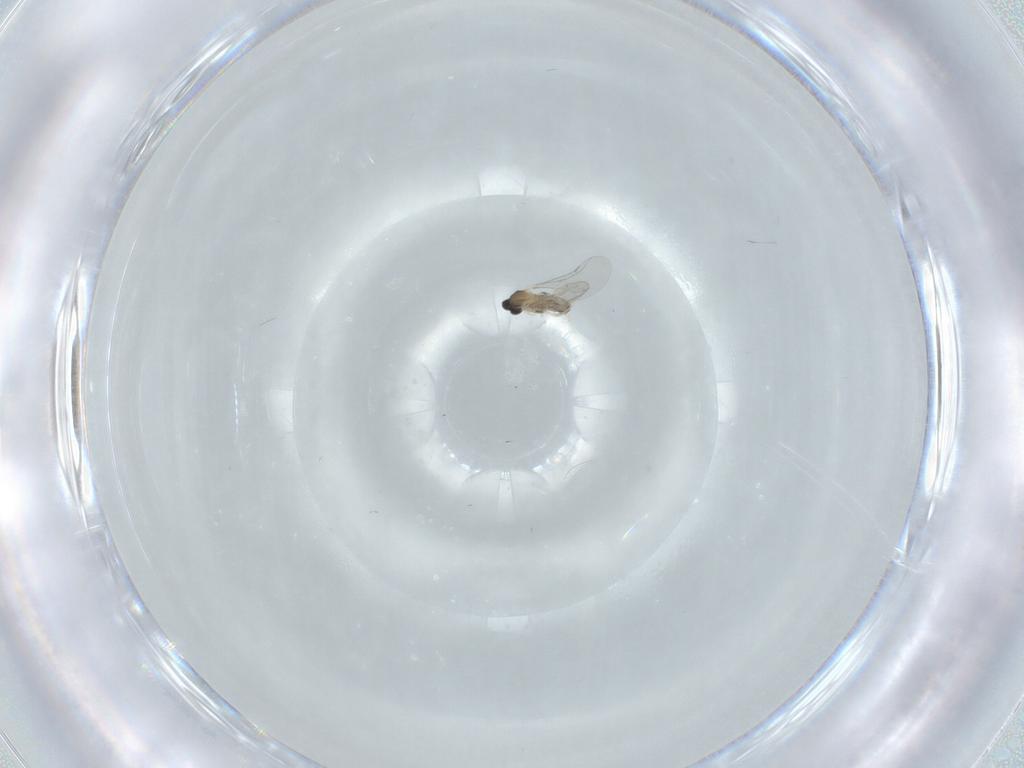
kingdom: Animalia
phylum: Arthropoda
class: Insecta
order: Diptera
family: Cecidomyiidae
